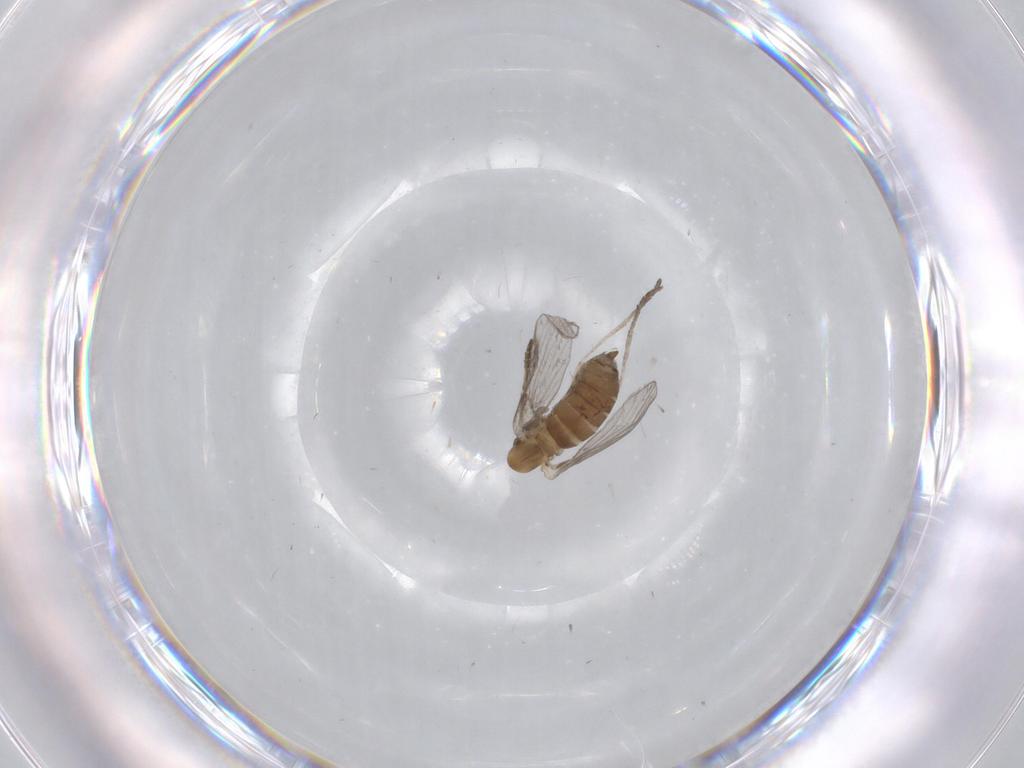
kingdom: Animalia
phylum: Arthropoda
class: Insecta
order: Diptera
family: Psychodidae
